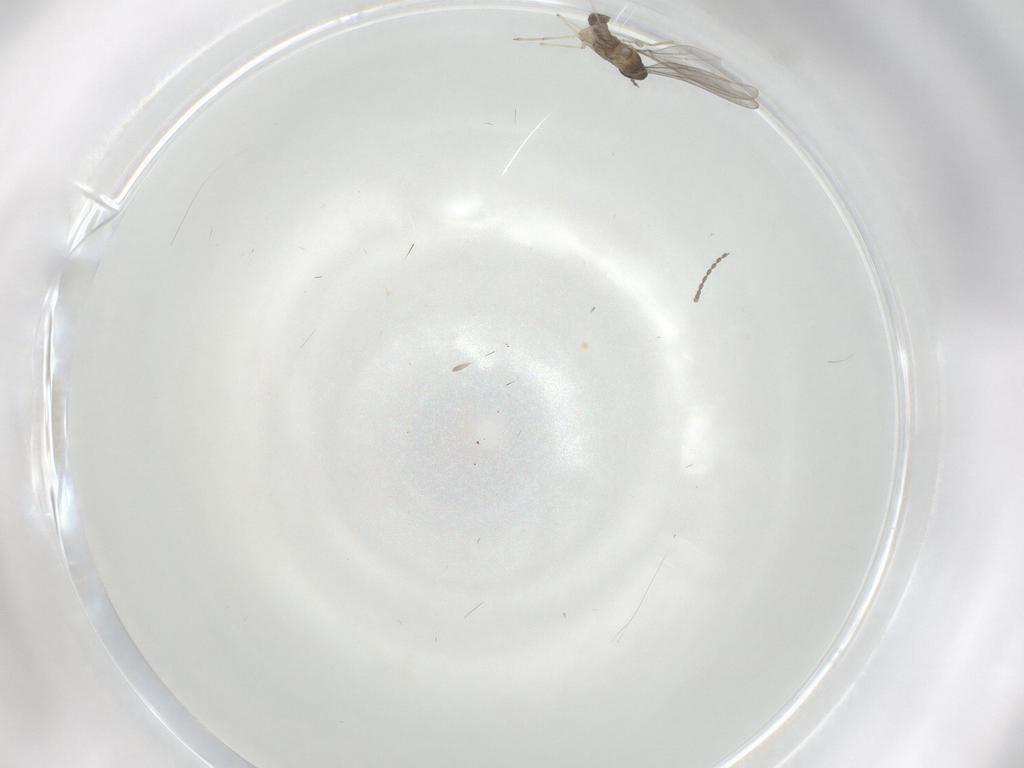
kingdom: Animalia
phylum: Arthropoda
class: Insecta
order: Diptera
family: Cecidomyiidae
